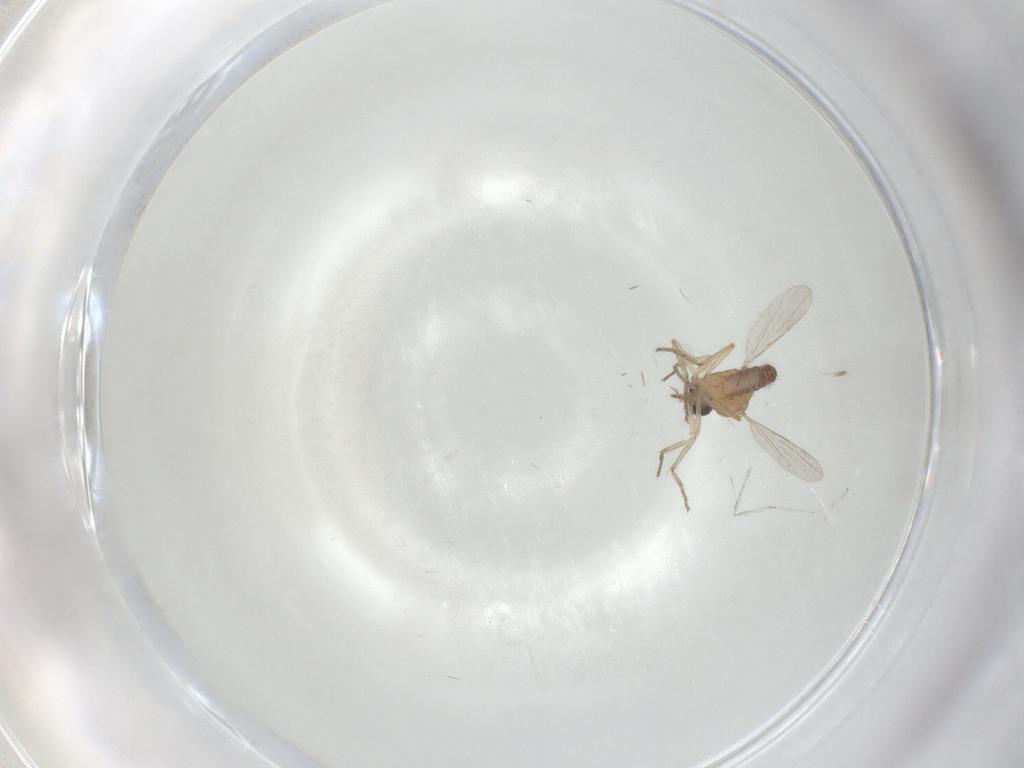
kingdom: Animalia
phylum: Arthropoda
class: Insecta
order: Diptera
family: Ceratopogonidae
